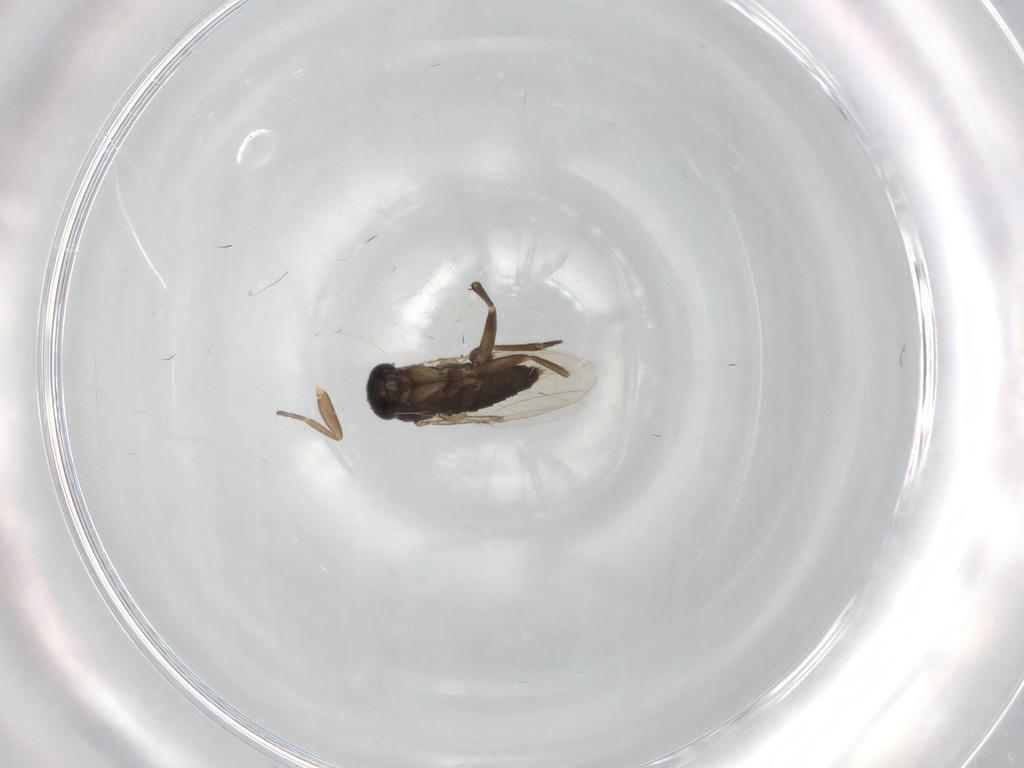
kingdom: Animalia
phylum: Arthropoda
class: Insecta
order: Diptera
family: Phoridae
